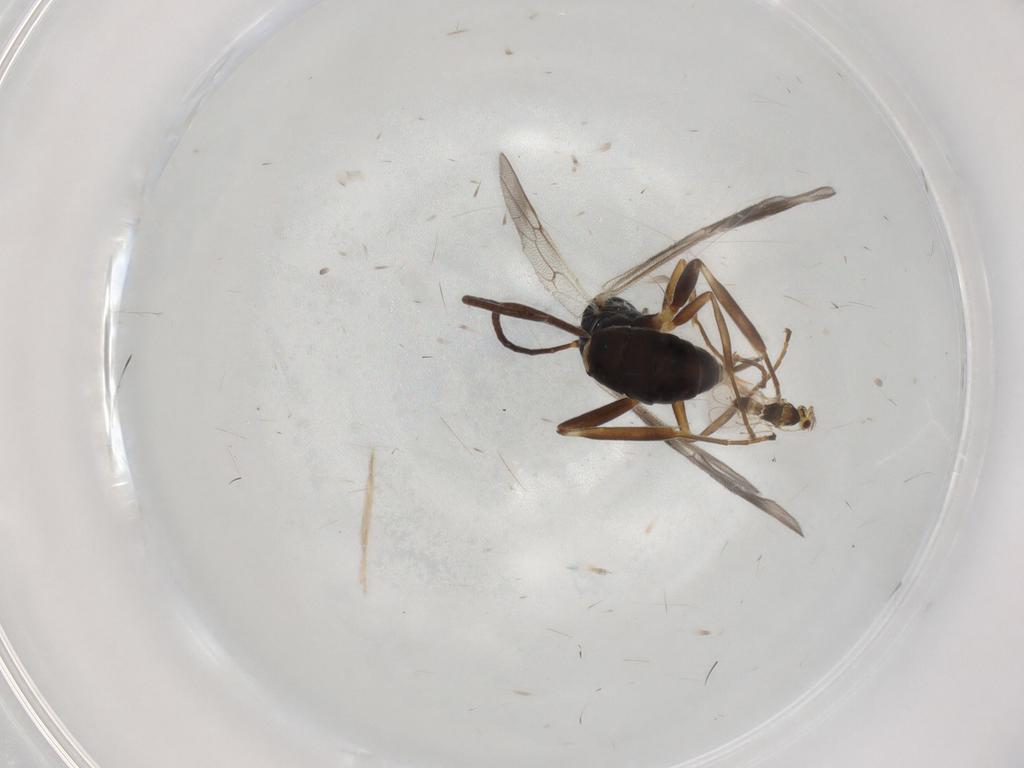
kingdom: Animalia
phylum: Arthropoda
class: Insecta
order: Hymenoptera
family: Ichneumonidae
